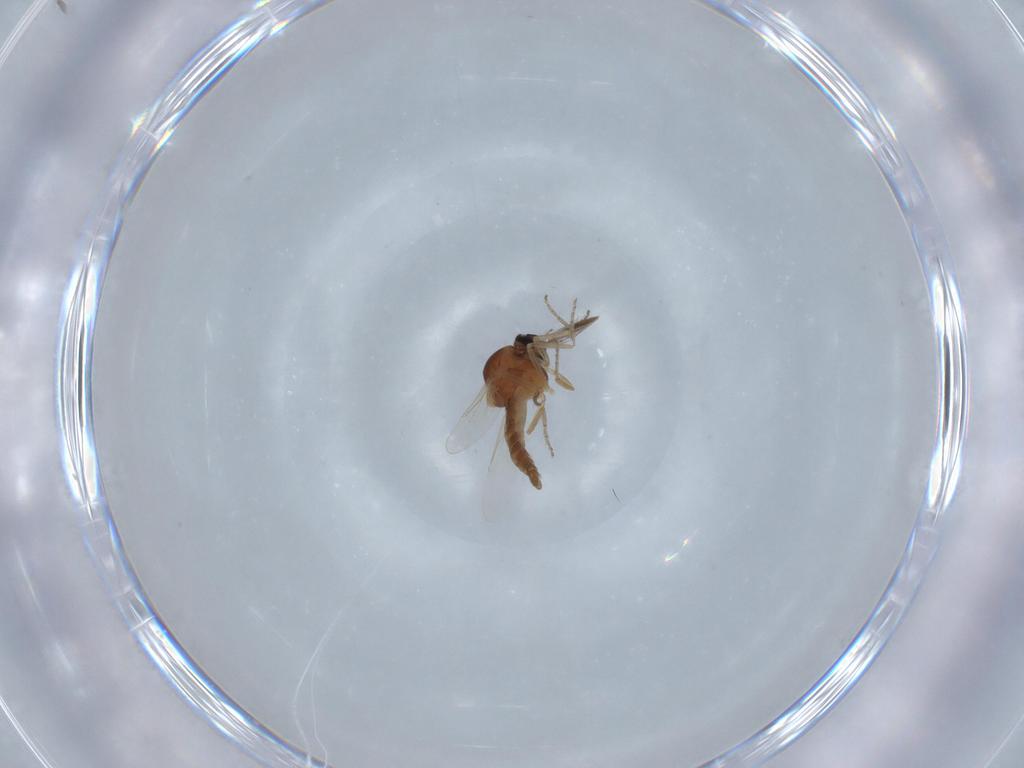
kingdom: Animalia
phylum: Arthropoda
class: Insecta
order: Diptera
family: Ceratopogonidae
